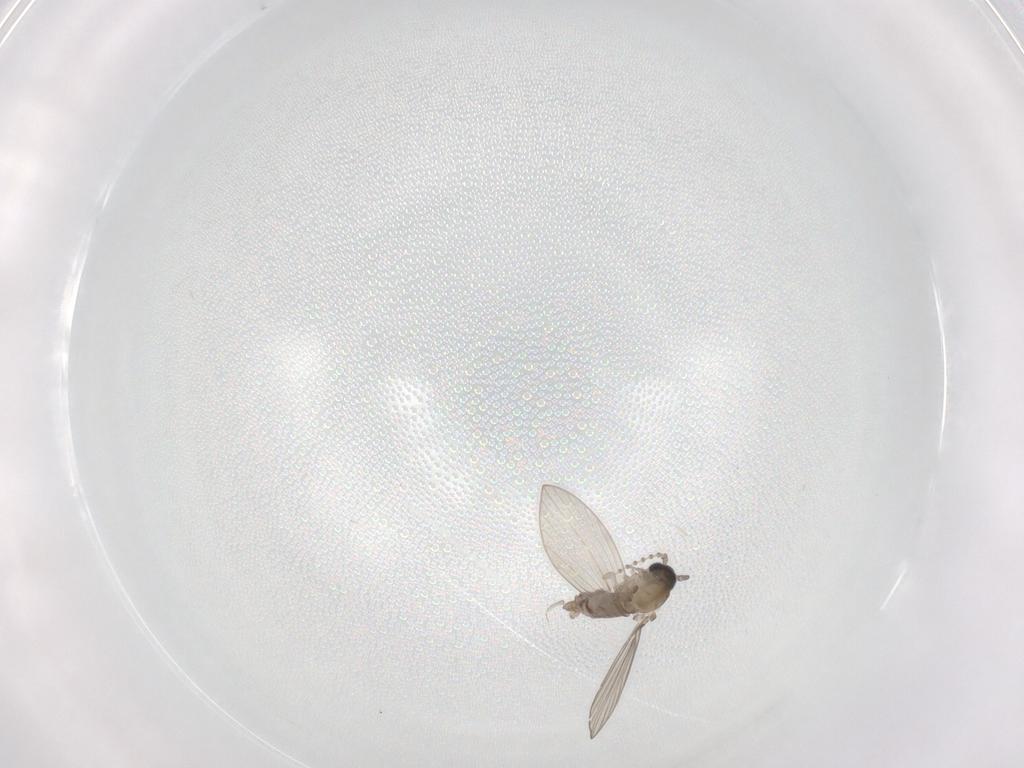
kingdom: Animalia
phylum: Arthropoda
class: Insecta
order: Diptera
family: Psychodidae
